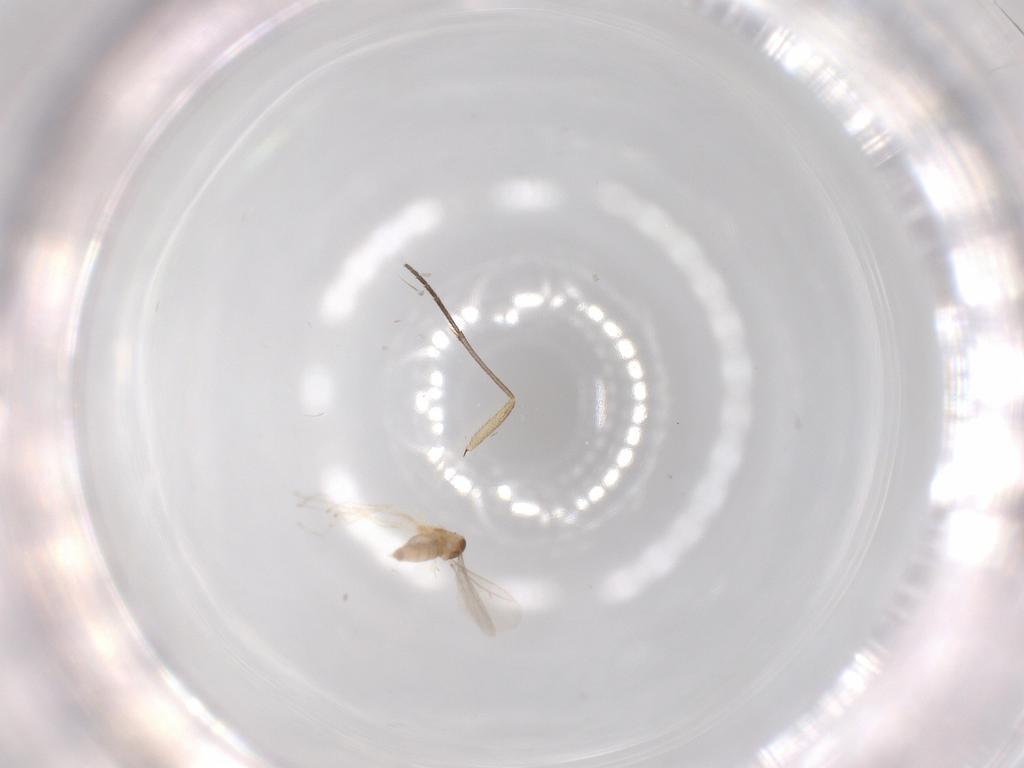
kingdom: Animalia
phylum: Arthropoda
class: Insecta
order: Diptera
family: Cecidomyiidae
